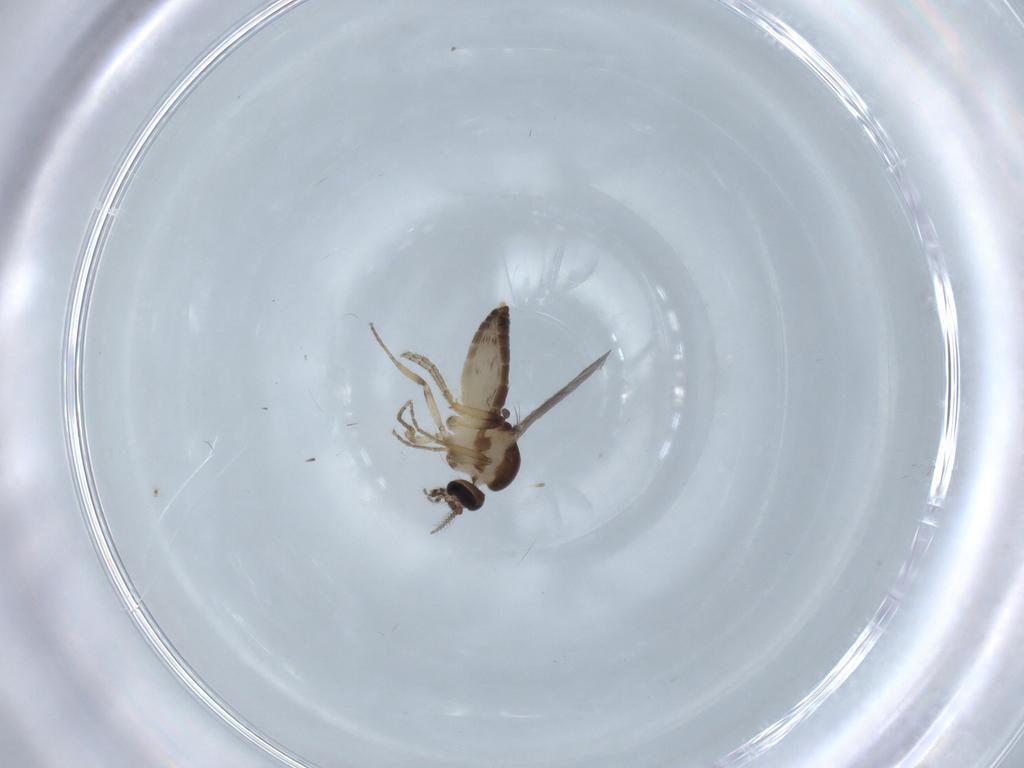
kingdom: Animalia
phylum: Arthropoda
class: Insecta
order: Diptera
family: Ceratopogonidae
